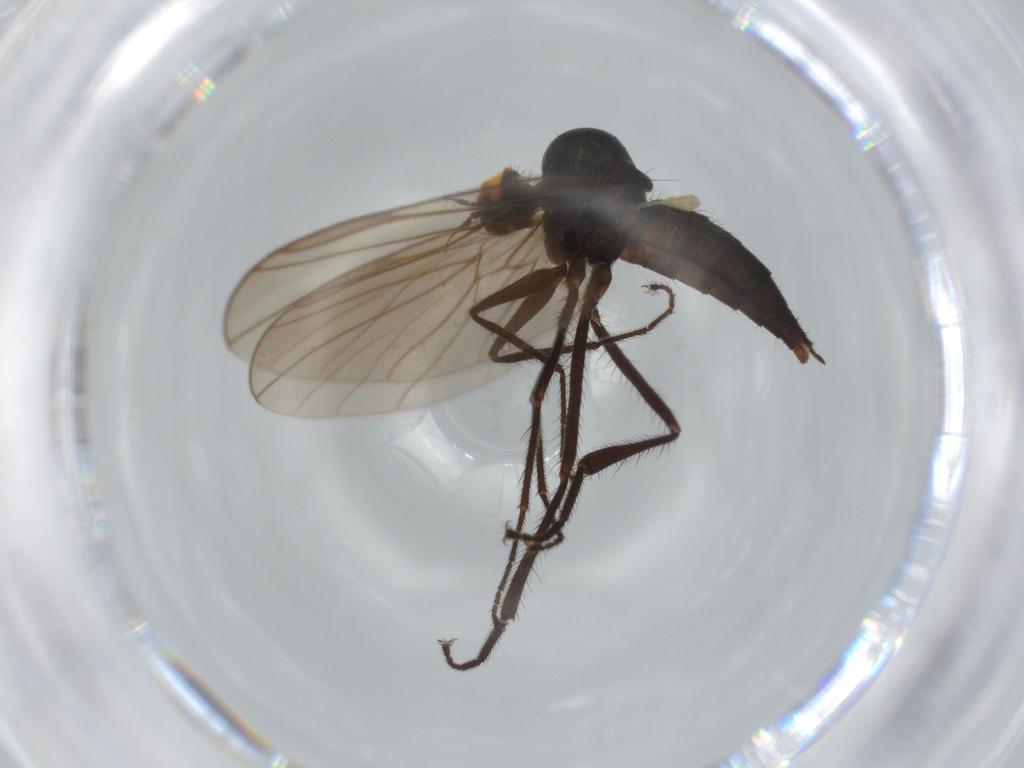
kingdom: Animalia
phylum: Arthropoda
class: Insecta
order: Diptera
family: Hybotidae
